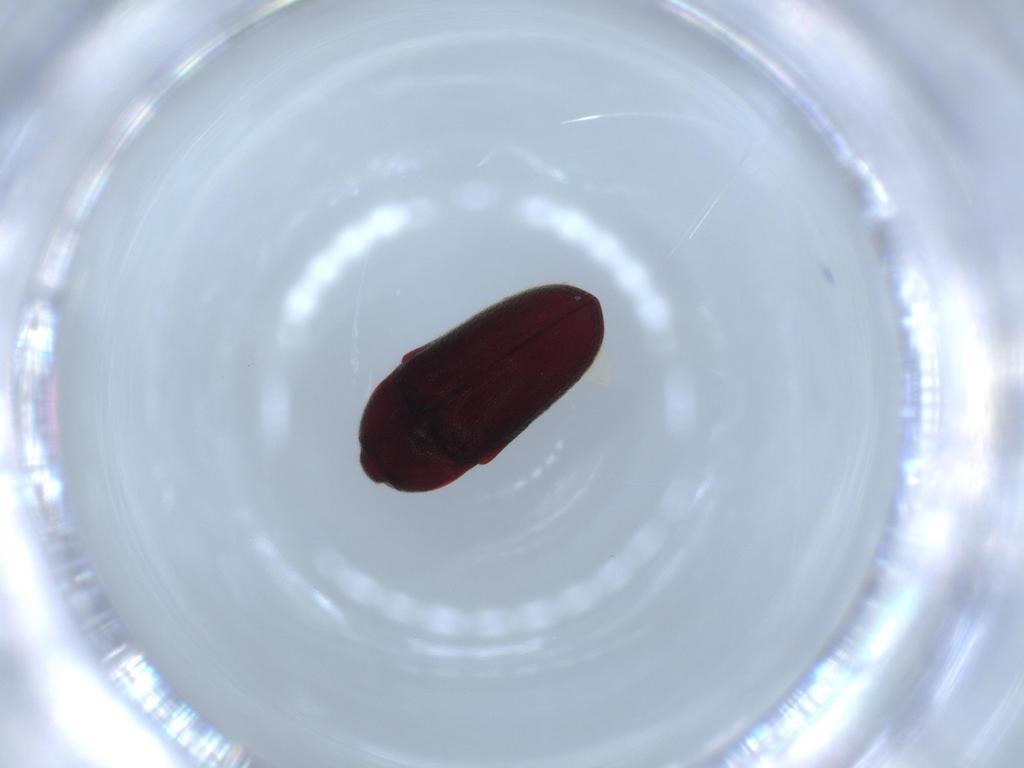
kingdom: Animalia
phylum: Arthropoda
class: Insecta
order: Coleoptera
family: Throscidae
